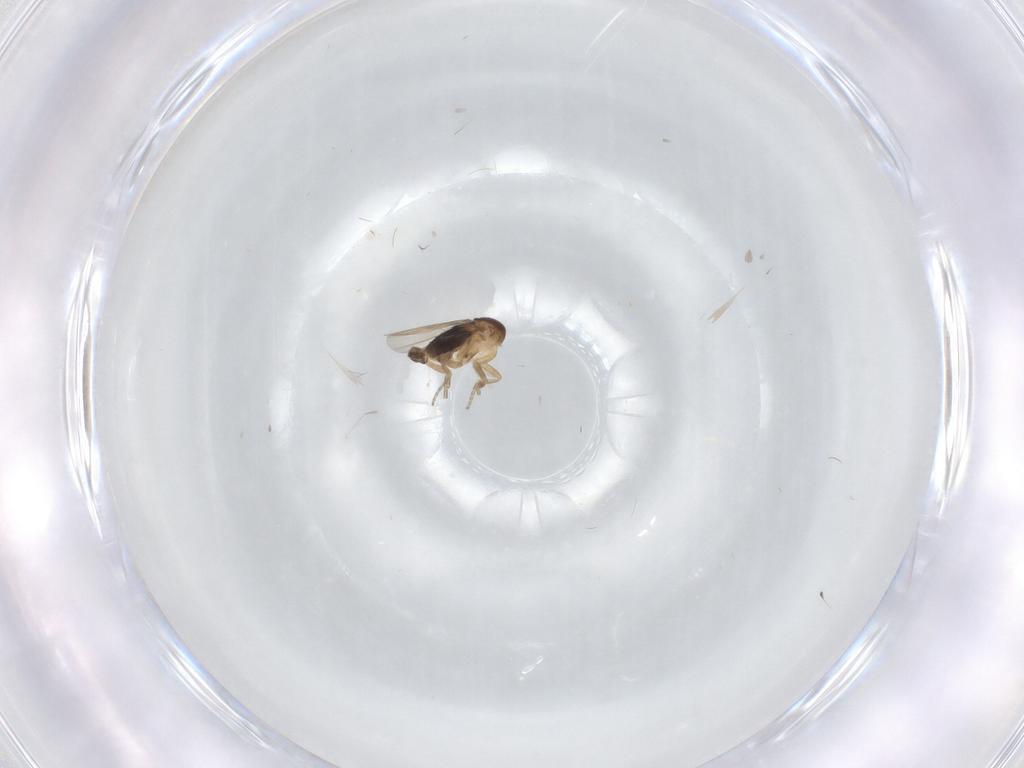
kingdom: Animalia
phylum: Arthropoda
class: Insecta
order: Diptera
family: Phoridae
